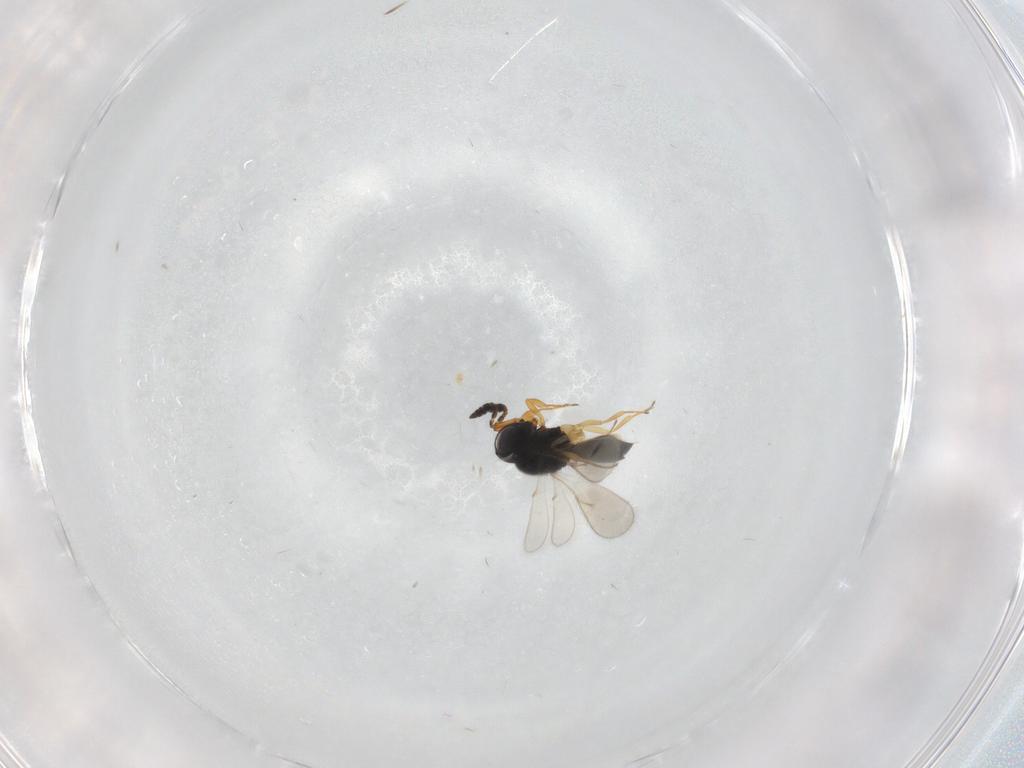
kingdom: Animalia
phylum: Arthropoda
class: Insecta
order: Hymenoptera
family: Scelionidae
